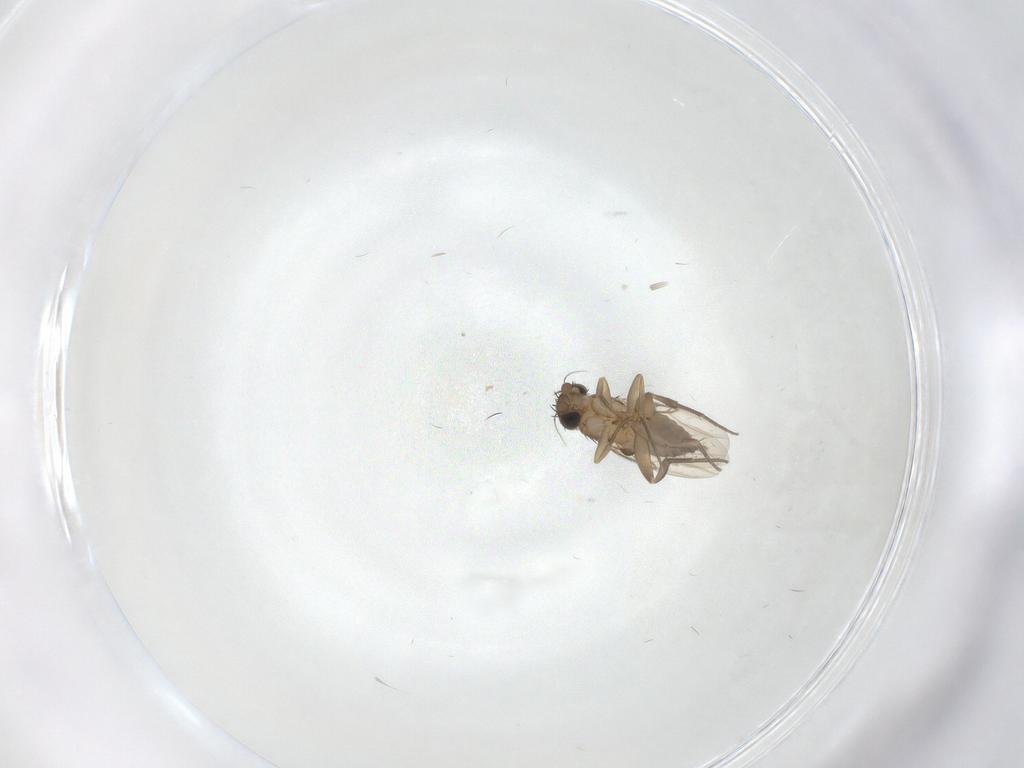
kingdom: Animalia
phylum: Arthropoda
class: Insecta
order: Diptera
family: Phoridae
